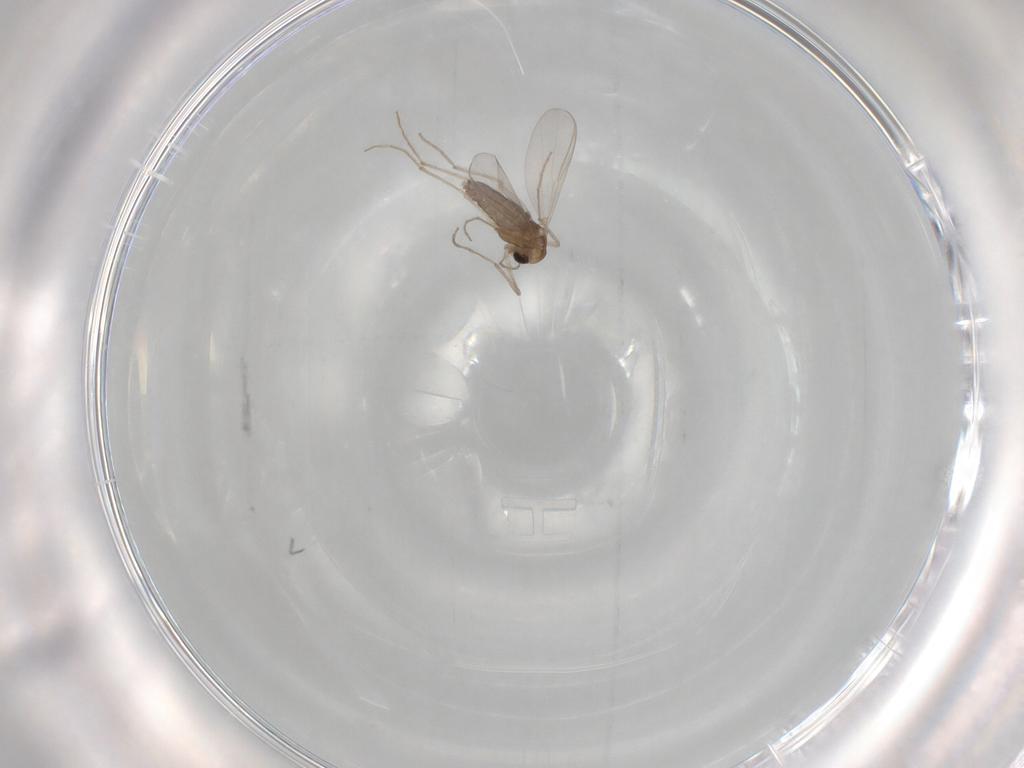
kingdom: Animalia
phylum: Arthropoda
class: Insecta
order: Diptera
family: Chironomidae
